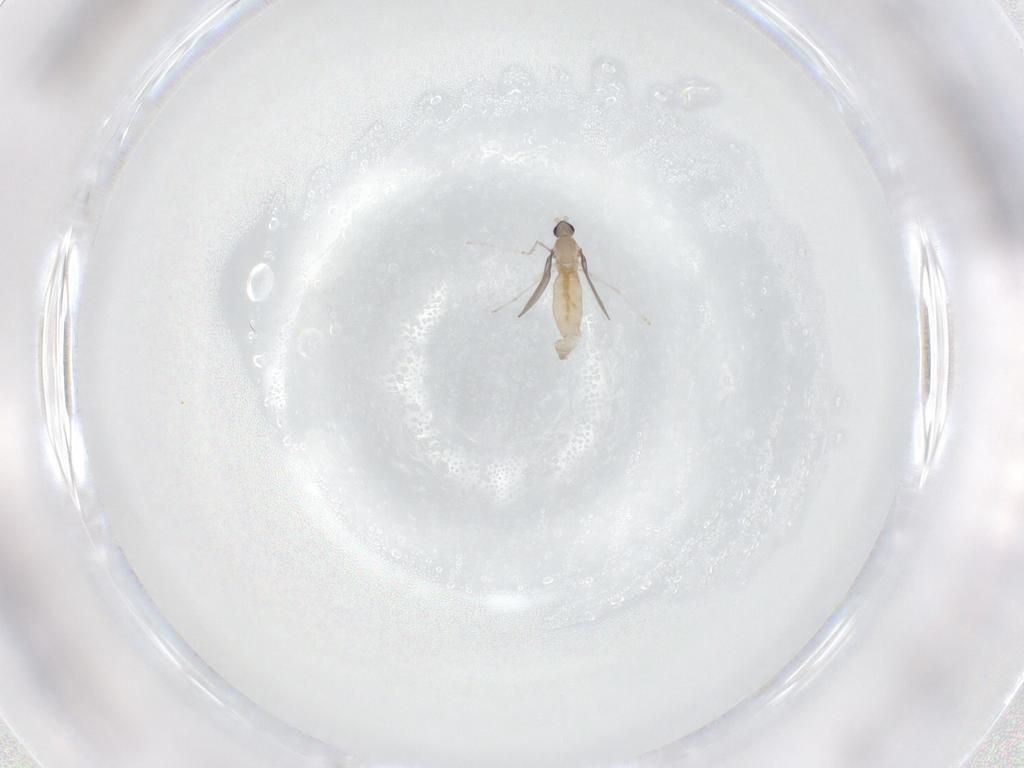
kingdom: Animalia
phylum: Arthropoda
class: Insecta
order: Diptera
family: Cecidomyiidae
